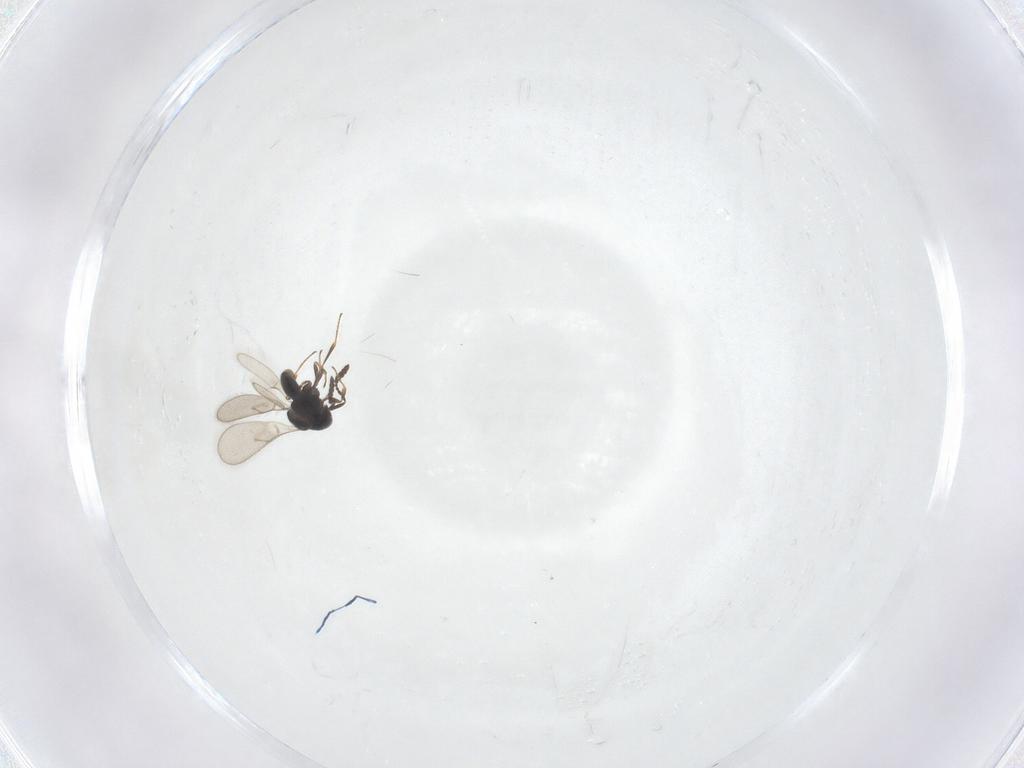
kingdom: Animalia
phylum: Arthropoda
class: Insecta
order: Hymenoptera
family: Scelionidae
